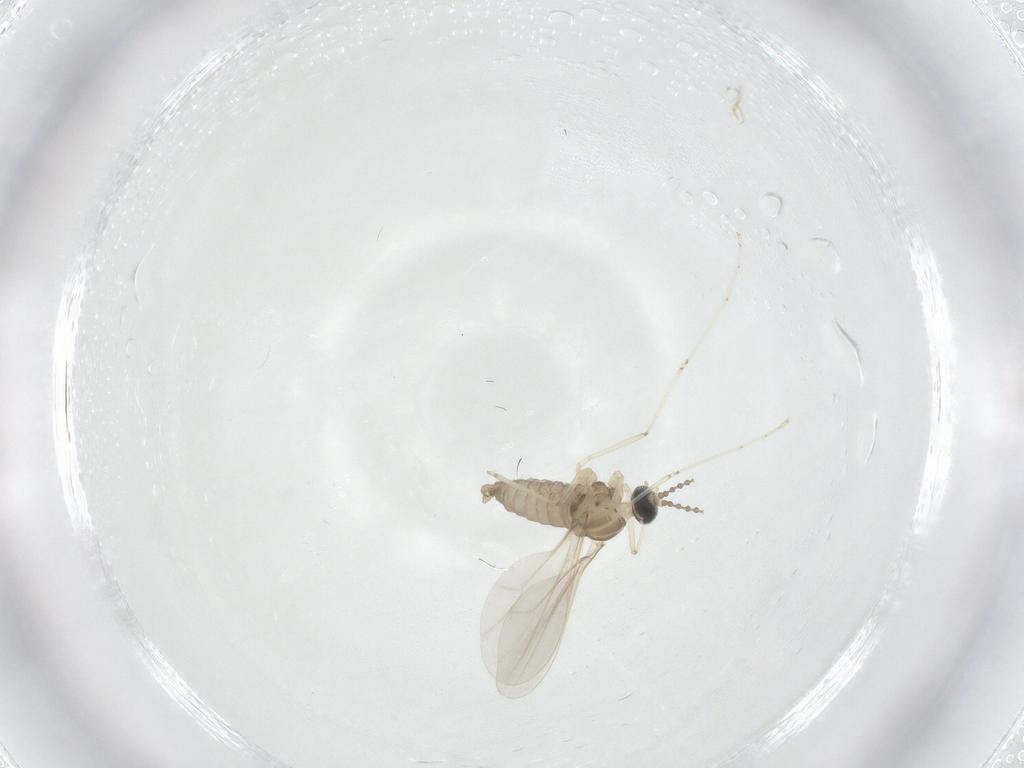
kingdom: Animalia
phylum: Arthropoda
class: Insecta
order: Diptera
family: Cecidomyiidae
